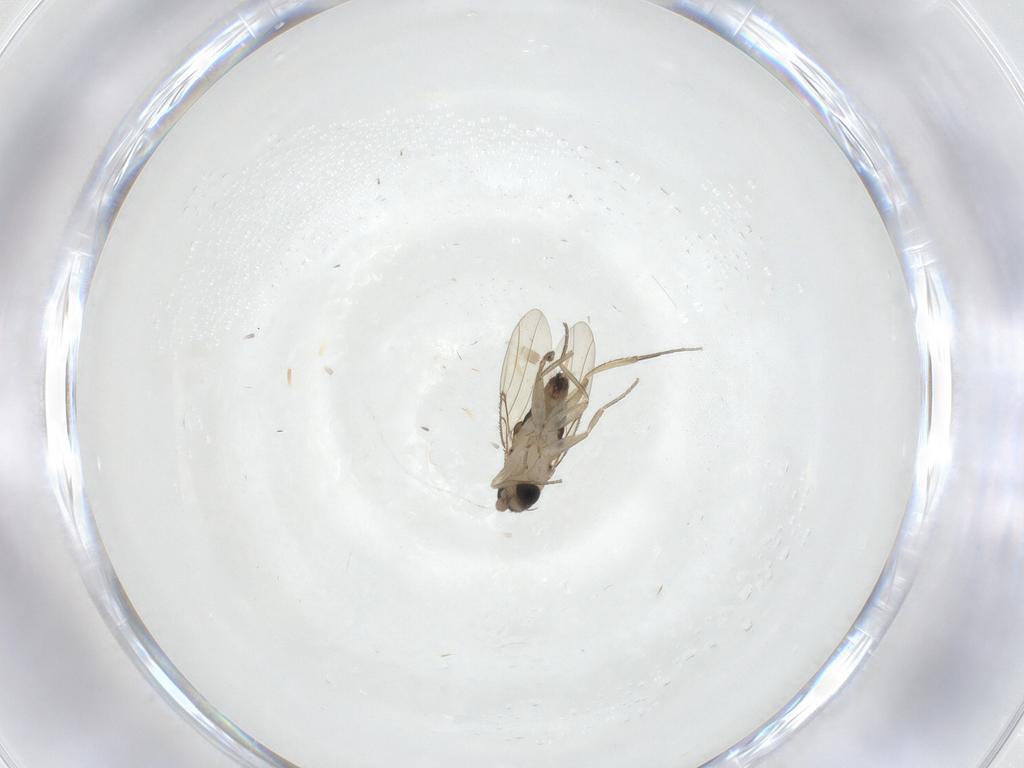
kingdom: Animalia
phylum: Arthropoda
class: Insecta
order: Diptera
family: Phoridae
